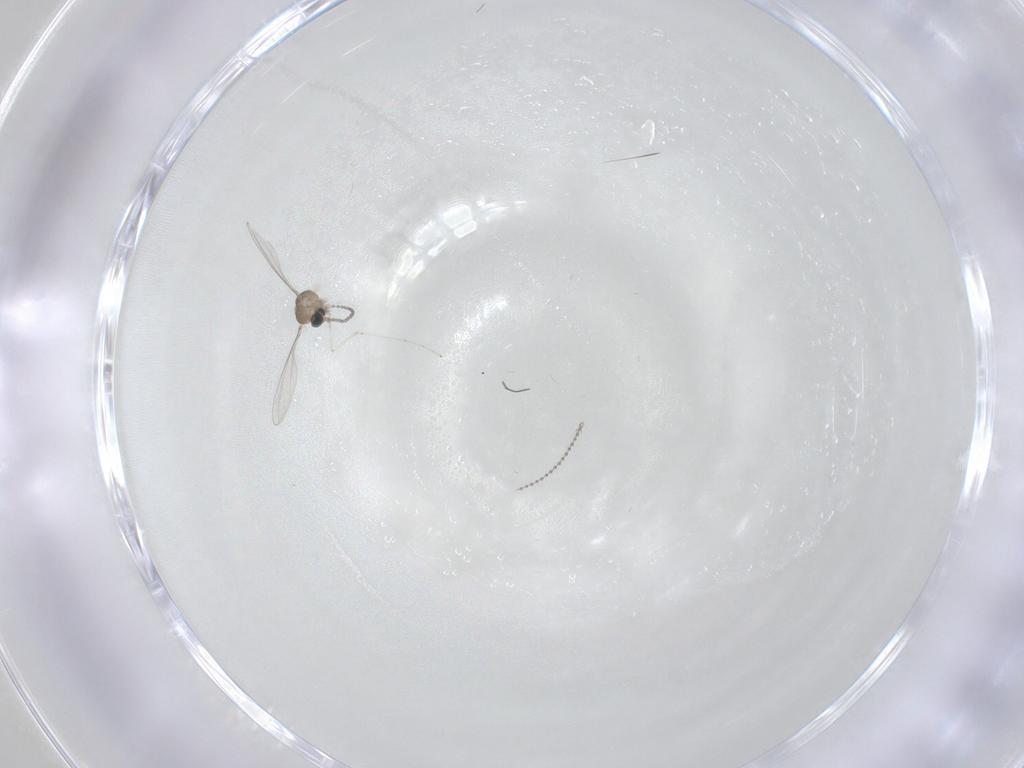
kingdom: Animalia
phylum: Arthropoda
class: Insecta
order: Diptera
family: Cecidomyiidae
